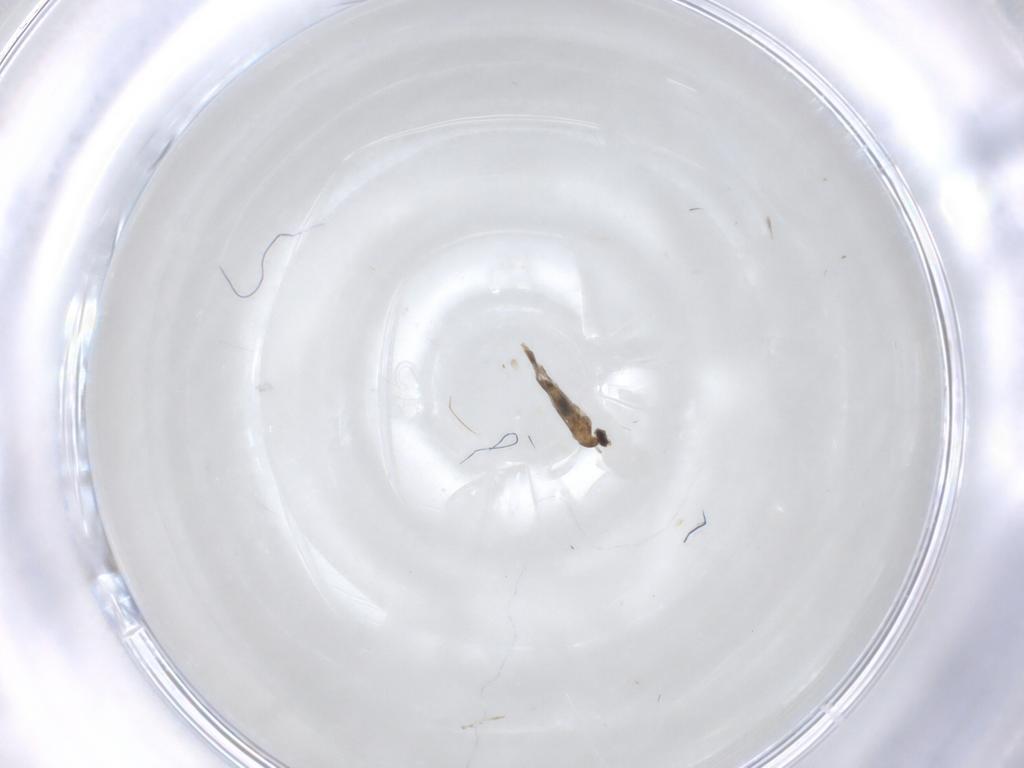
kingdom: Animalia
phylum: Arthropoda
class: Insecta
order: Diptera
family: Cecidomyiidae
